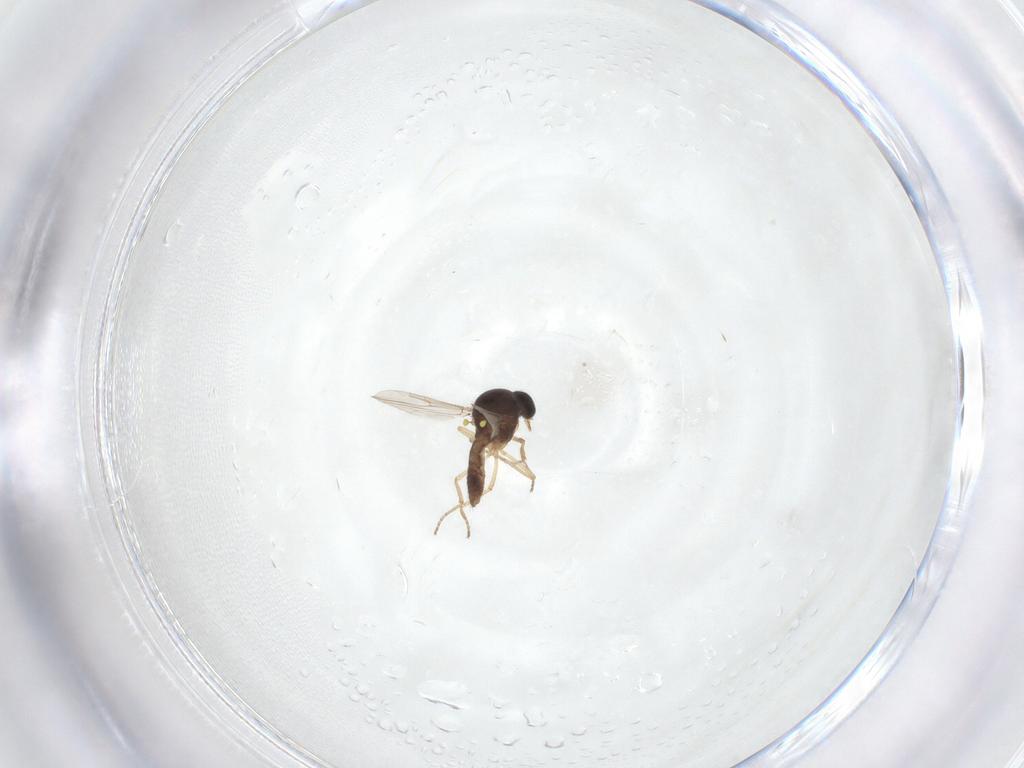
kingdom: Animalia
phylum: Arthropoda
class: Insecta
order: Diptera
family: Ceratopogonidae
